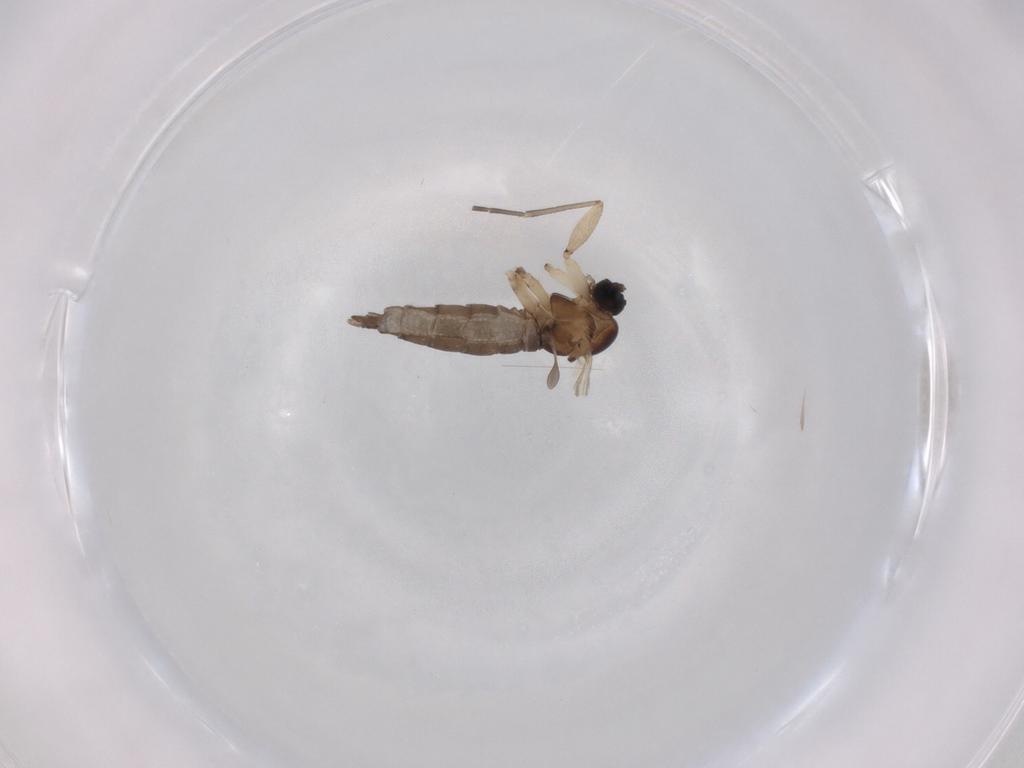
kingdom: Animalia
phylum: Arthropoda
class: Insecta
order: Diptera
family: Sciaridae
